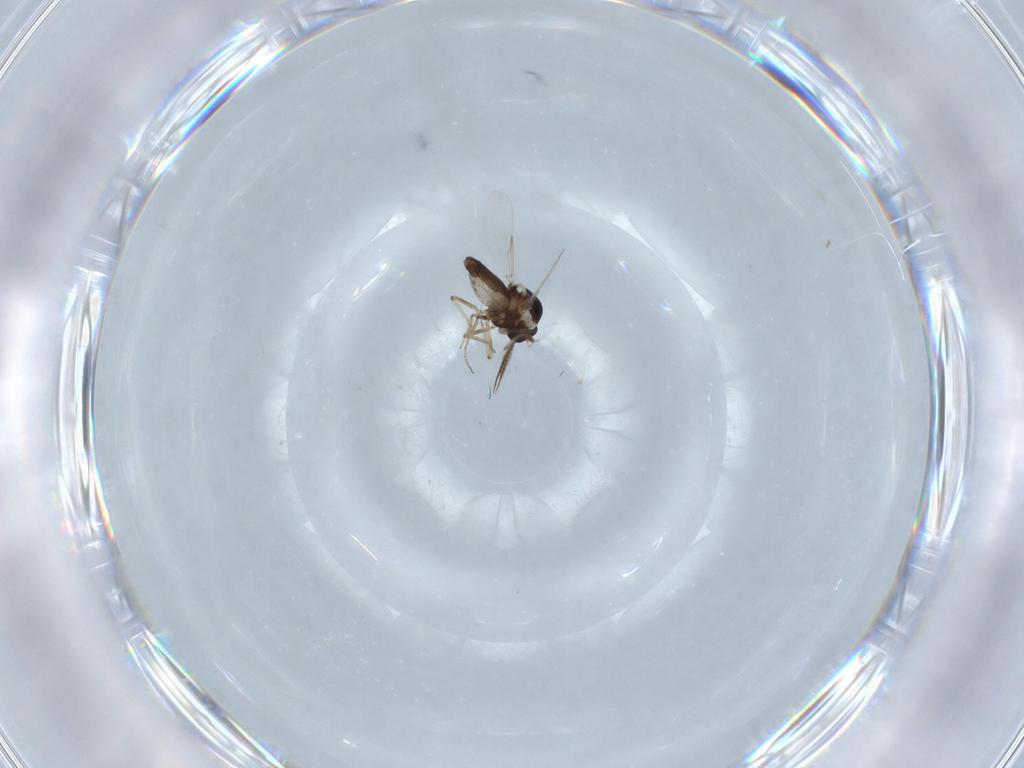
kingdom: Animalia
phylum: Arthropoda
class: Insecta
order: Diptera
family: Ceratopogonidae
